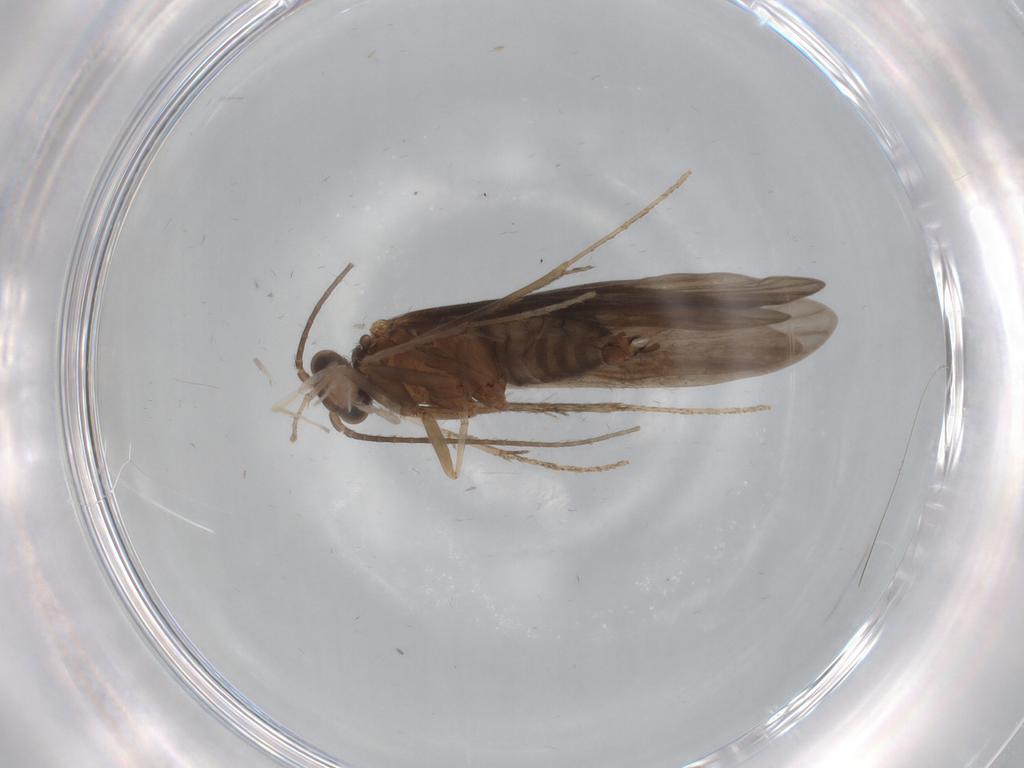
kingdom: Animalia
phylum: Arthropoda
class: Insecta
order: Trichoptera
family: Xiphocentronidae
